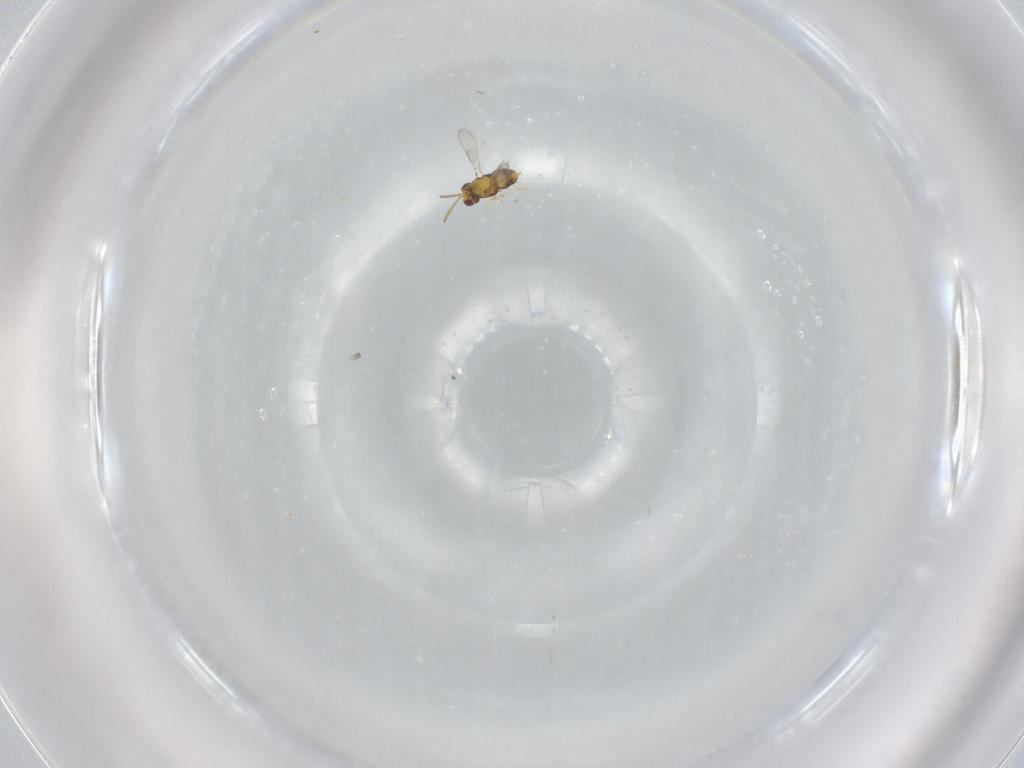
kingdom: Animalia
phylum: Arthropoda
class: Insecta
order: Hymenoptera
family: Aphelinidae
